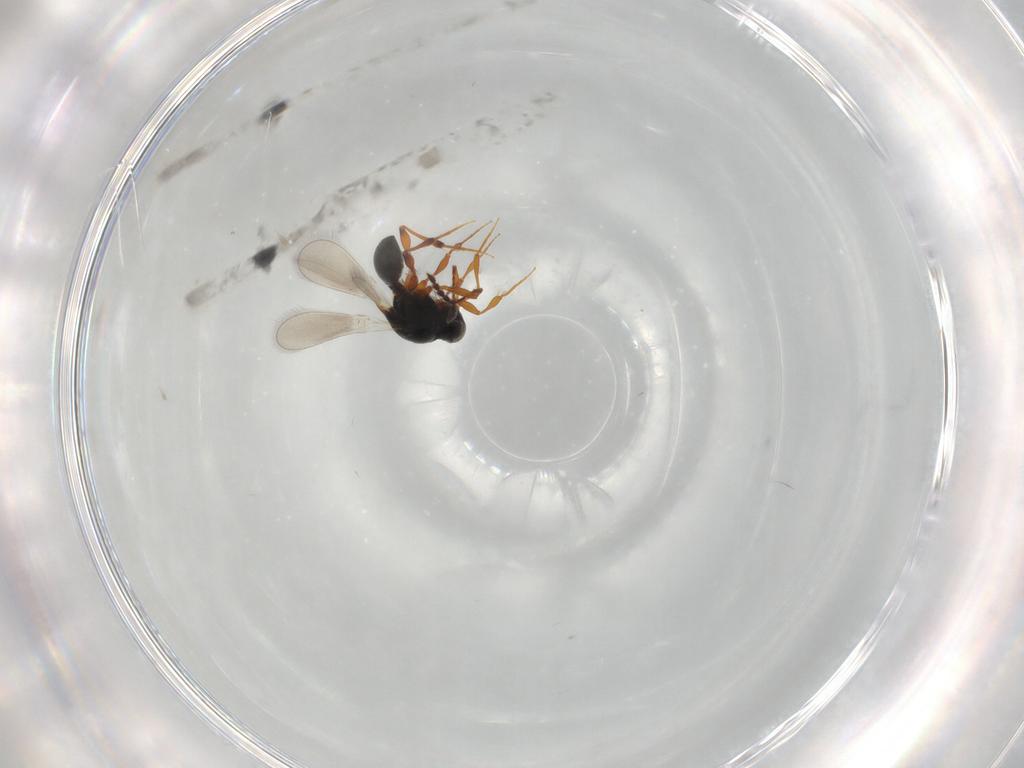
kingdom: Animalia
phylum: Arthropoda
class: Insecta
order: Hymenoptera
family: Platygastridae
